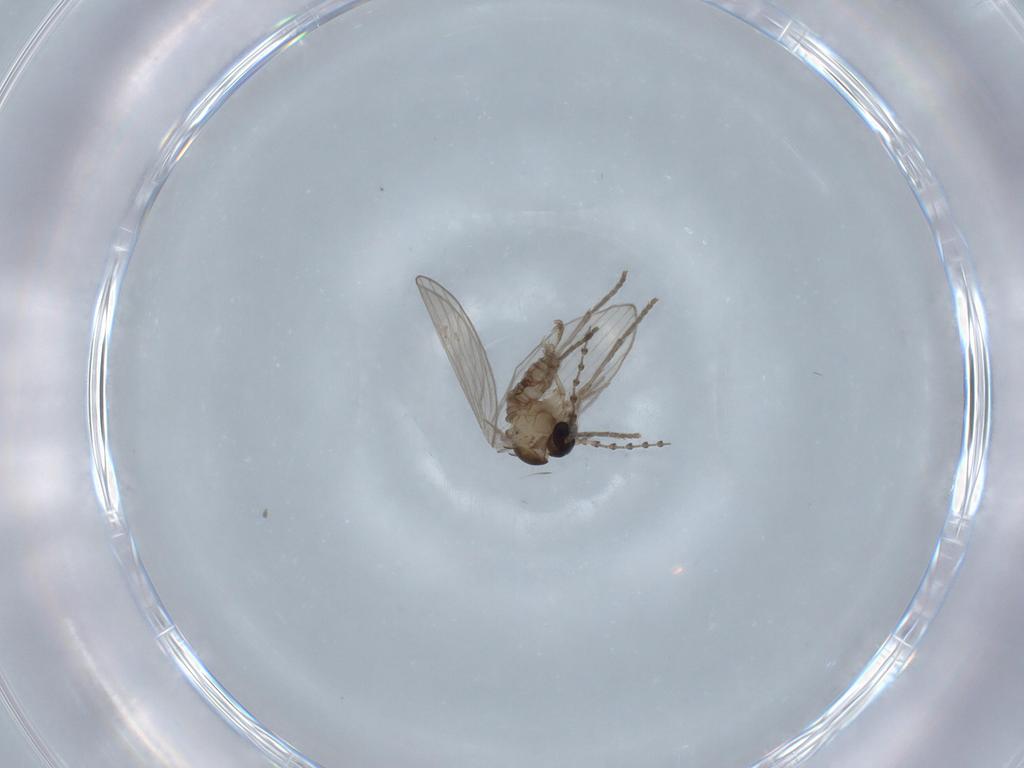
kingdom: Animalia
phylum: Arthropoda
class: Insecta
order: Diptera
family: Psychodidae
